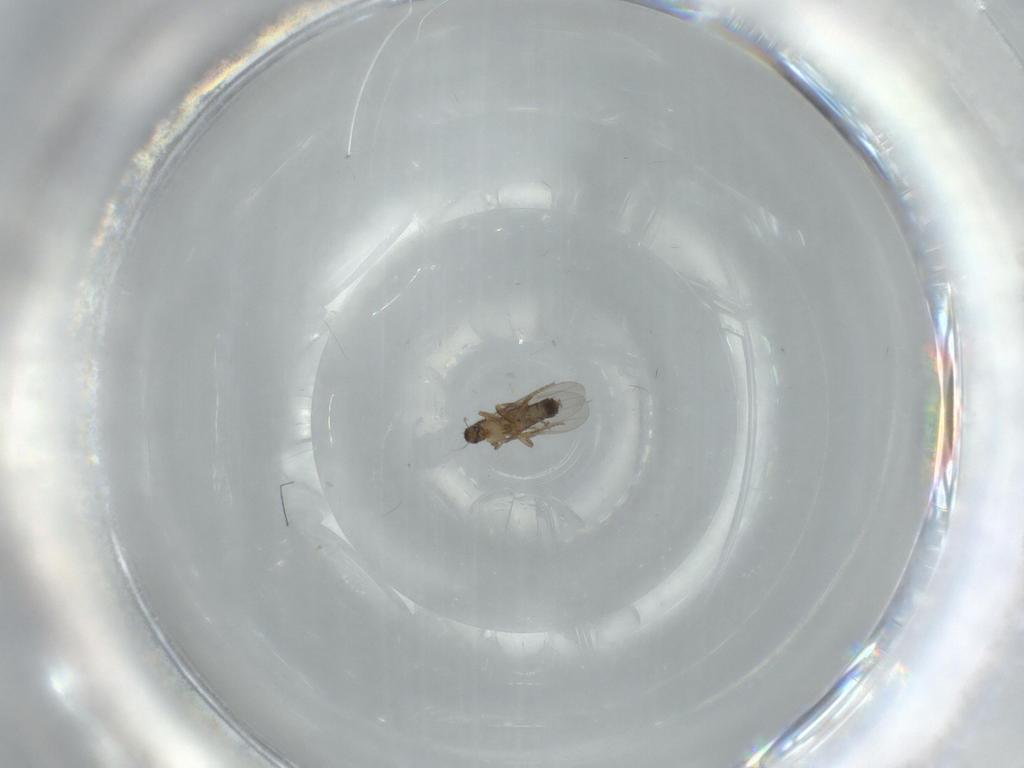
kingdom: Animalia
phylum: Arthropoda
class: Insecta
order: Diptera
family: Phoridae
